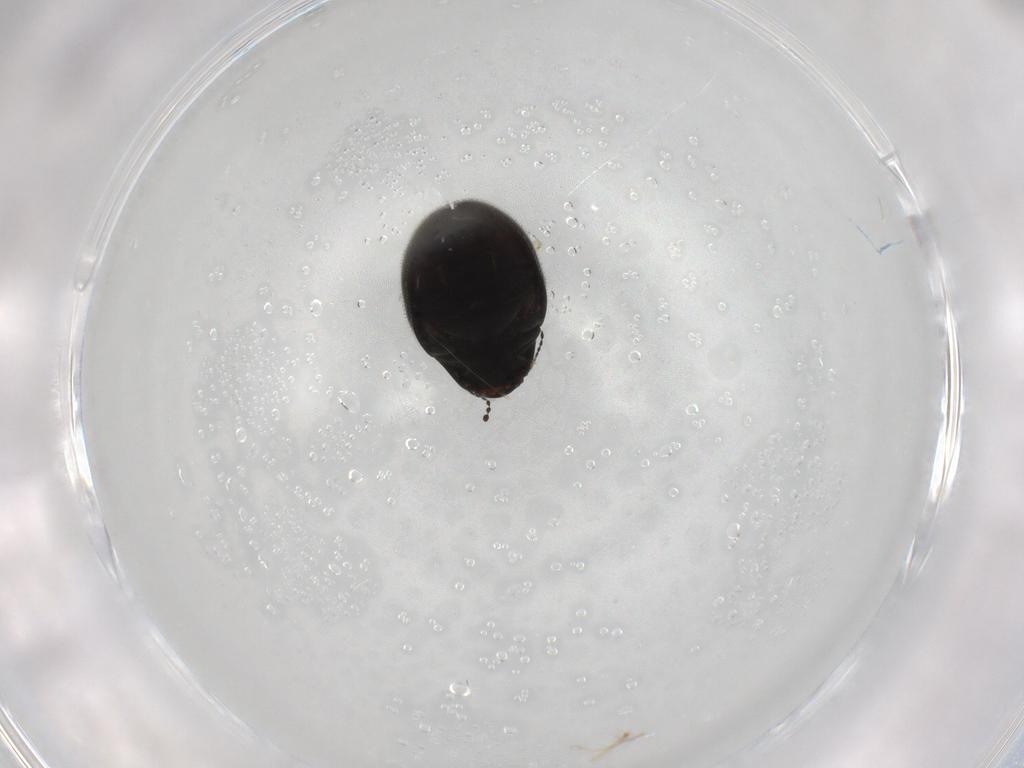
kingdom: Animalia
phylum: Arthropoda
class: Insecta
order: Coleoptera
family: Limnichidae
